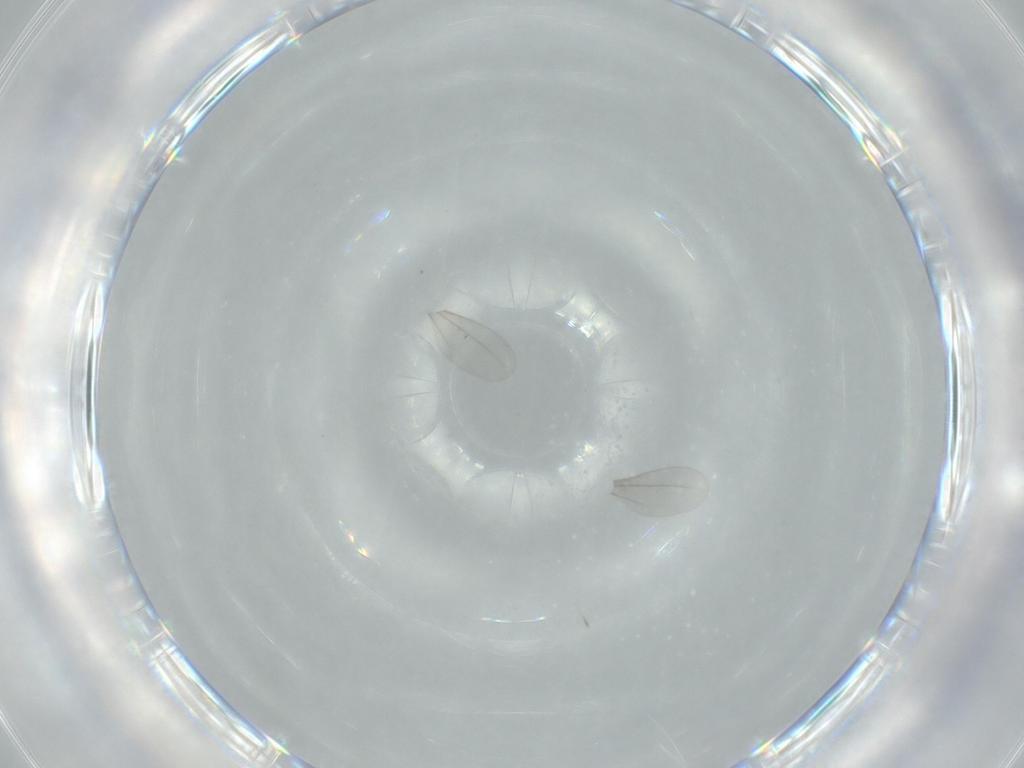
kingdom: Animalia
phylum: Arthropoda
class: Insecta
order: Diptera
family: Cecidomyiidae
